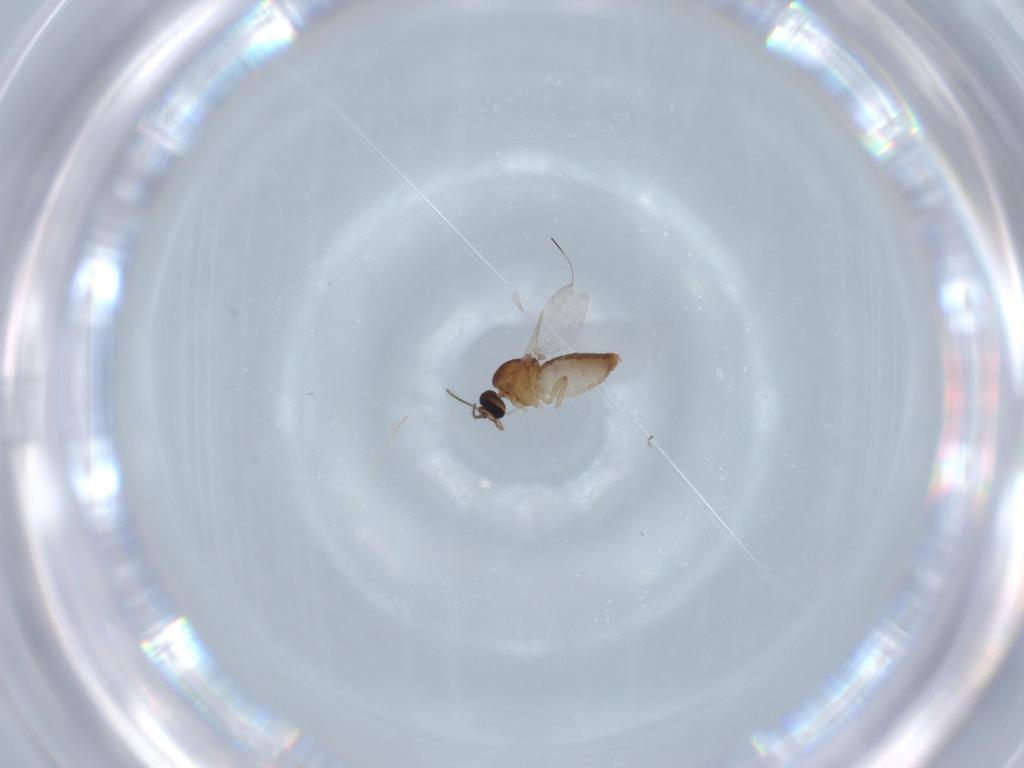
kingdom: Animalia
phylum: Arthropoda
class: Insecta
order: Diptera
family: Ceratopogonidae
